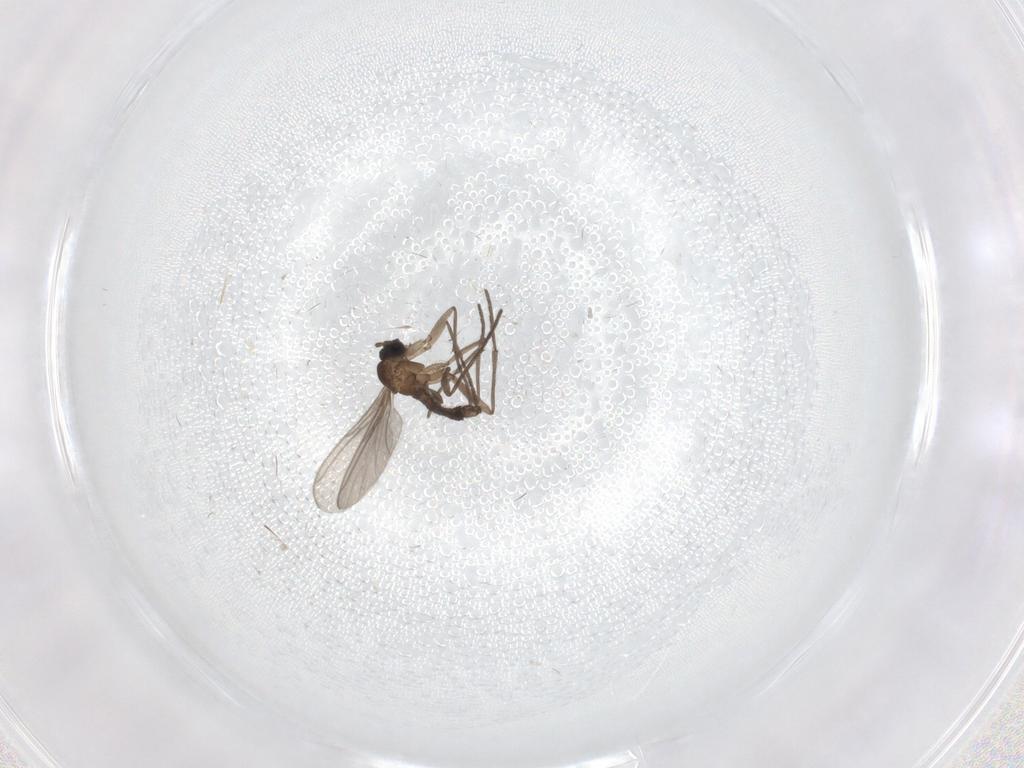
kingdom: Animalia
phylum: Arthropoda
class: Insecta
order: Diptera
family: Sciaridae
